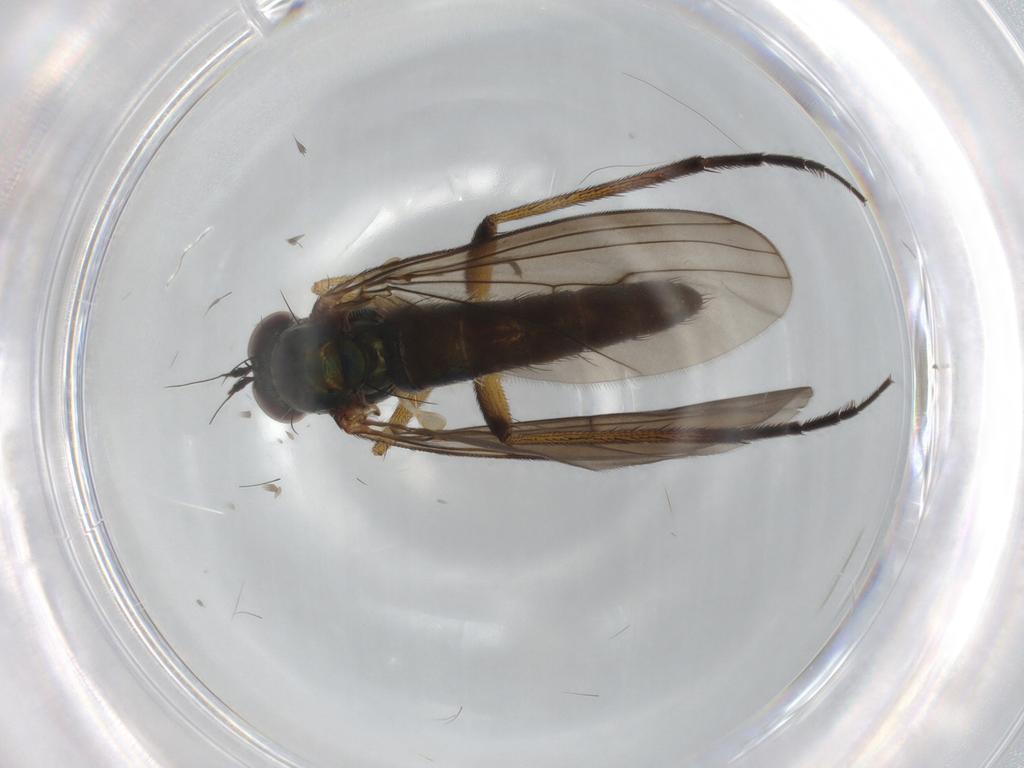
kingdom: Animalia
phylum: Arthropoda
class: Insecta
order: Diptera
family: Dolichopodidae
